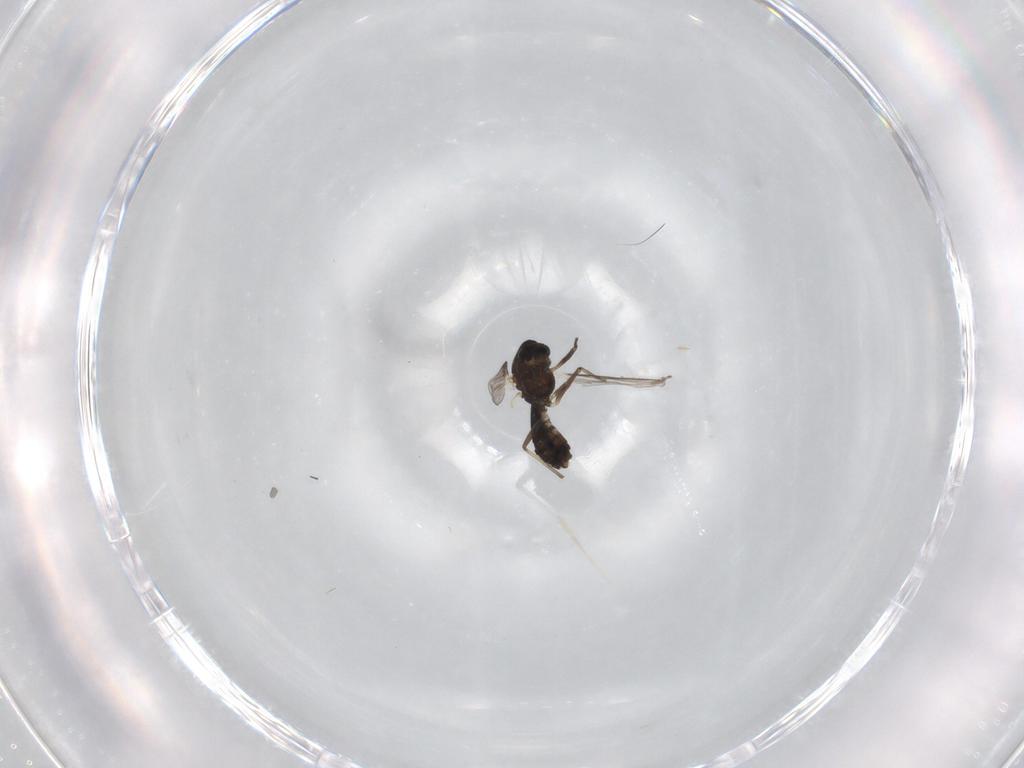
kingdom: Animalia
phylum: Arthropoda
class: Insecta
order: Diptera
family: Sciaridae
